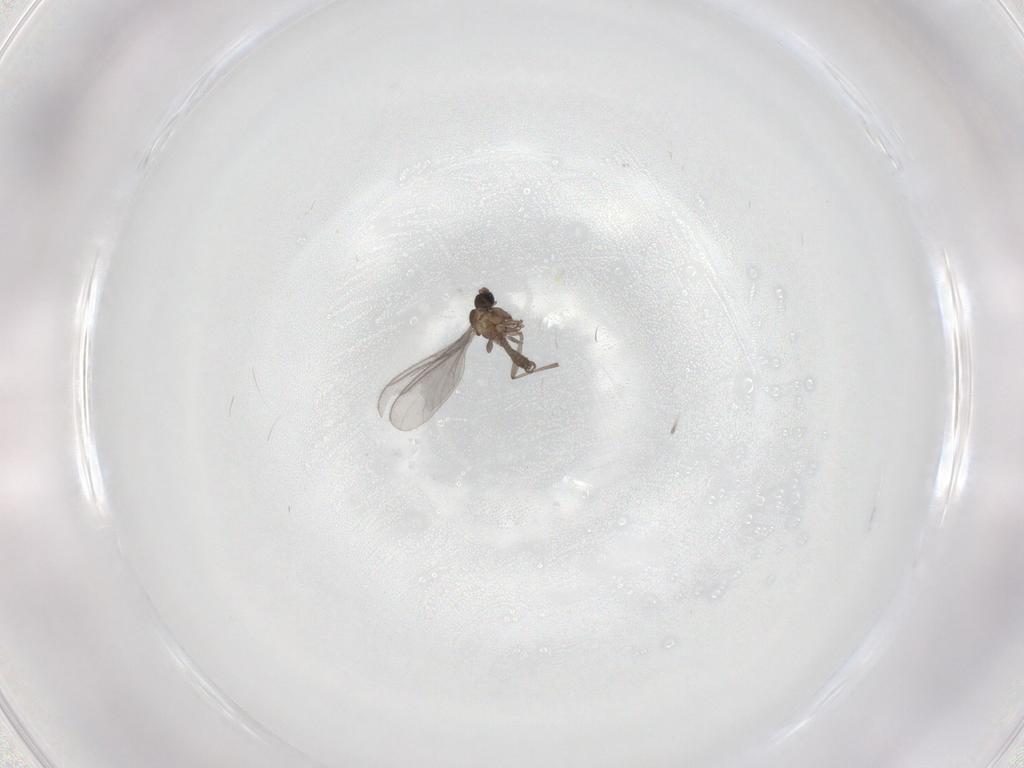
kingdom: Animalia
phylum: Arthropoda
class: Insecta
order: Diptera
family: Sciaridae
